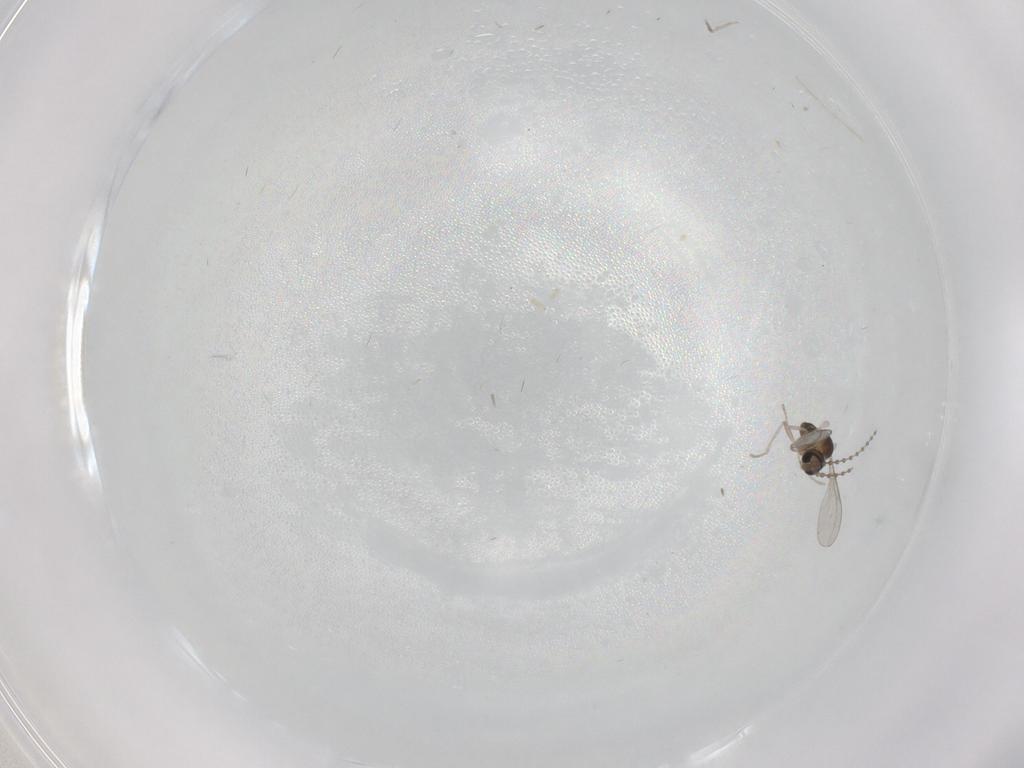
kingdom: Animalia
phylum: Arthropoda
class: Insecta
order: Diptera
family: Cecidomyiidae
